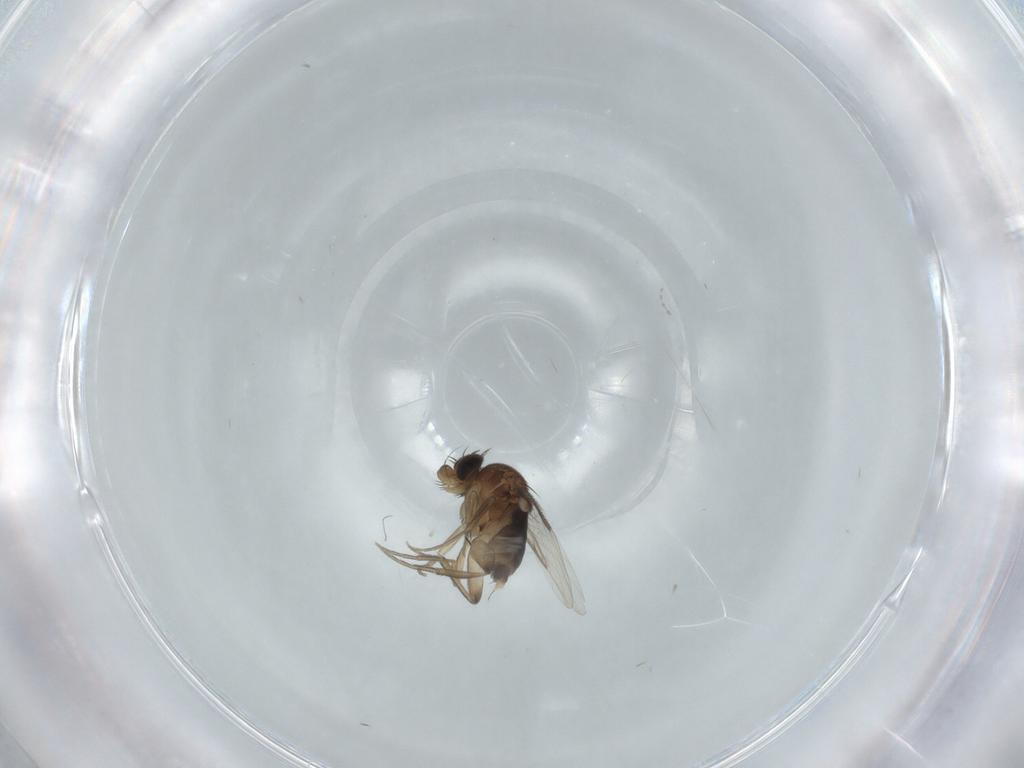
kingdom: Animalia
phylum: Arthropoda
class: Insecta
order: Diptera
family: Phoridae
